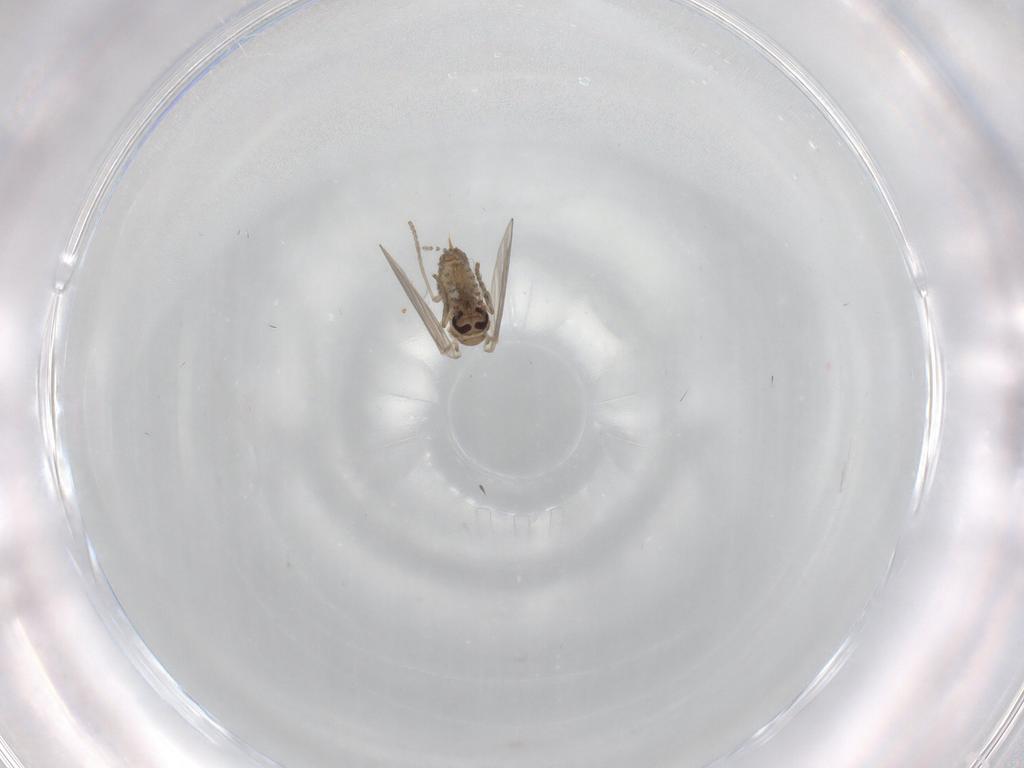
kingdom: Animalia
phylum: Arthropoda
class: Insecta
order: Diptera
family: Psychodidae
